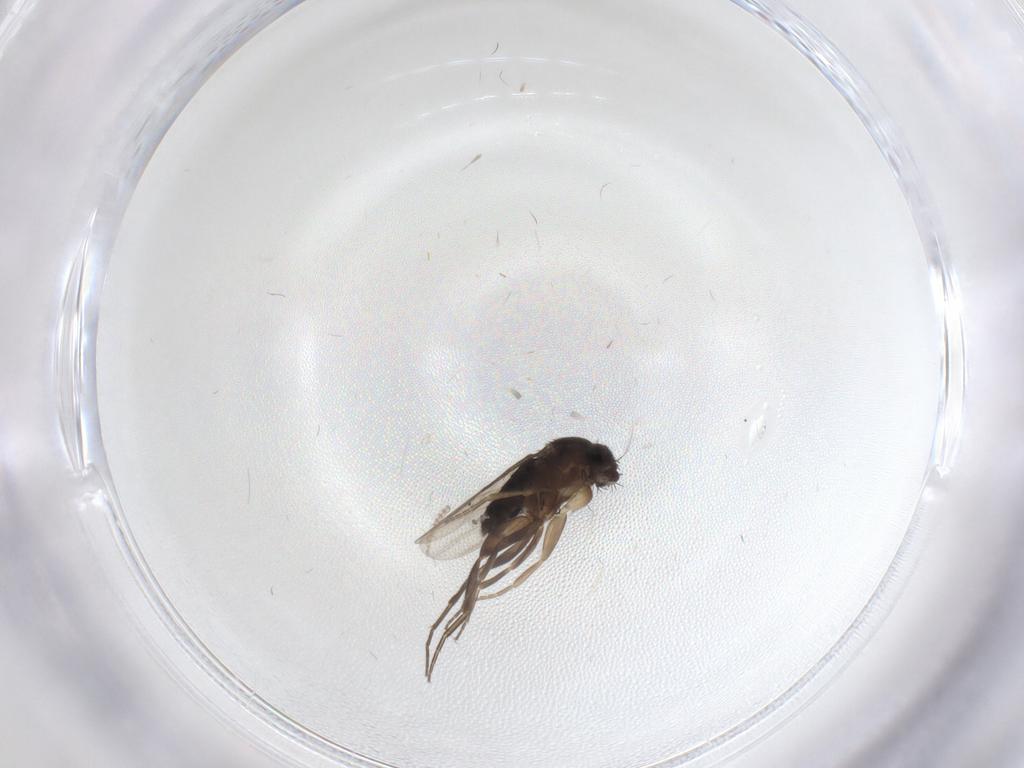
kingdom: Animalia
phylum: Arthropoda
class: Insecta
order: Diptera
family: Phoridae
